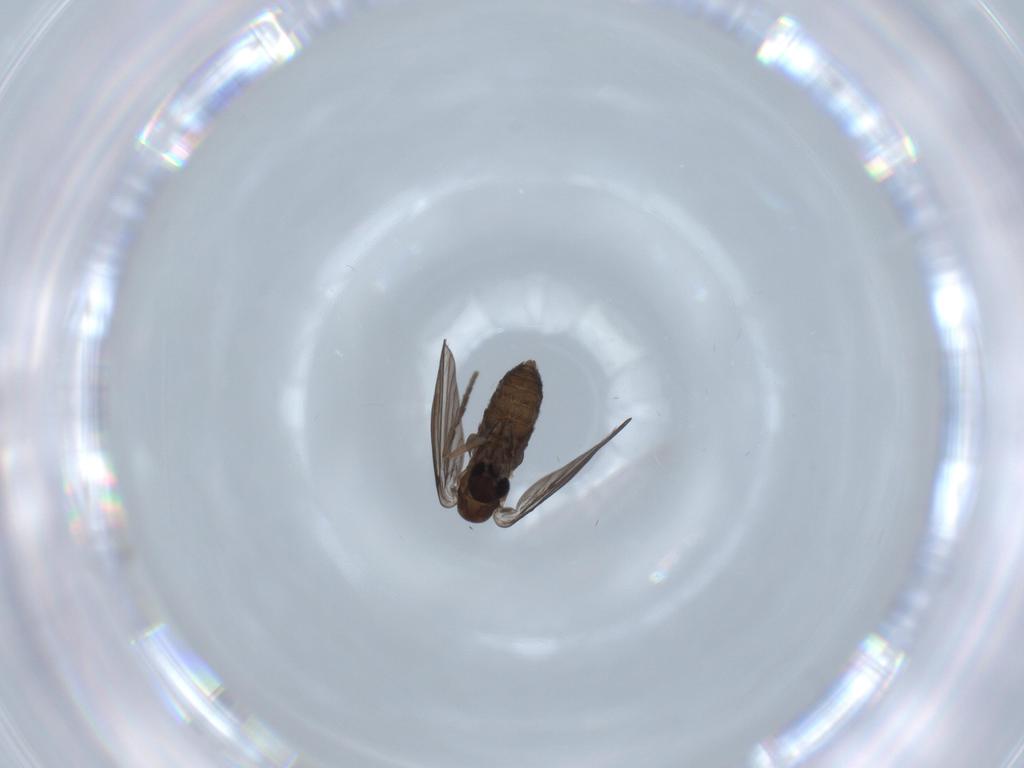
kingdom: Animalia
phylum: Arthropoda
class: Insecta
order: Diptera
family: Psychodidae
